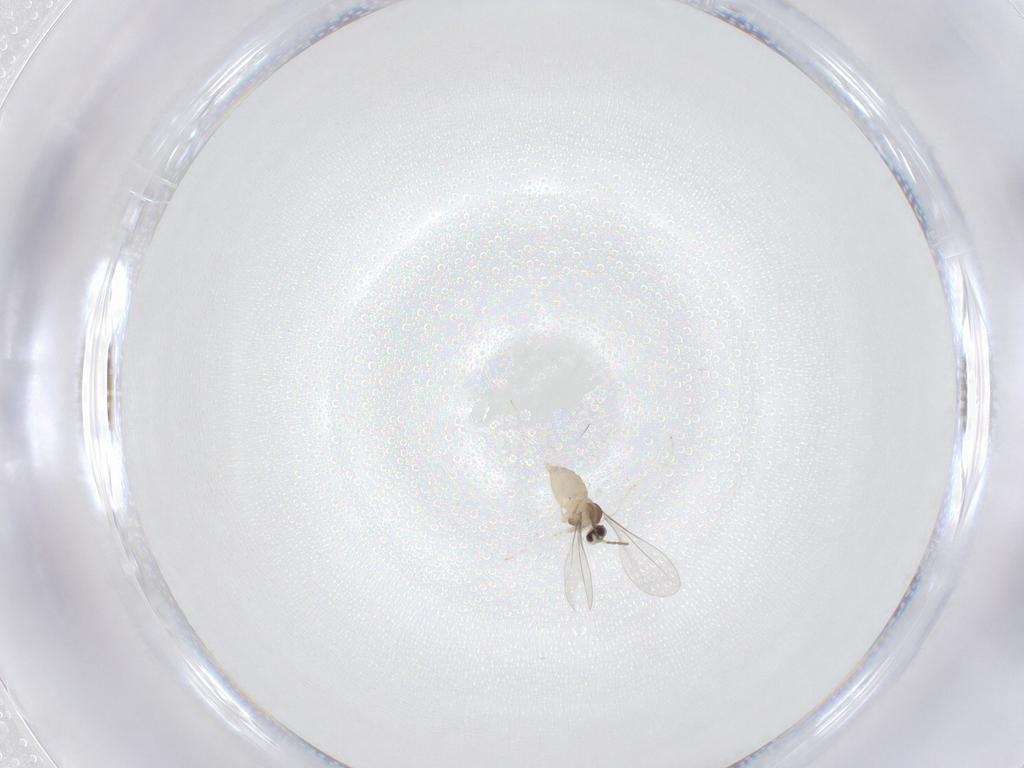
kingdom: Animalia
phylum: Arthropoda
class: Insecta
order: Diptera
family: Cecidomyiidae
